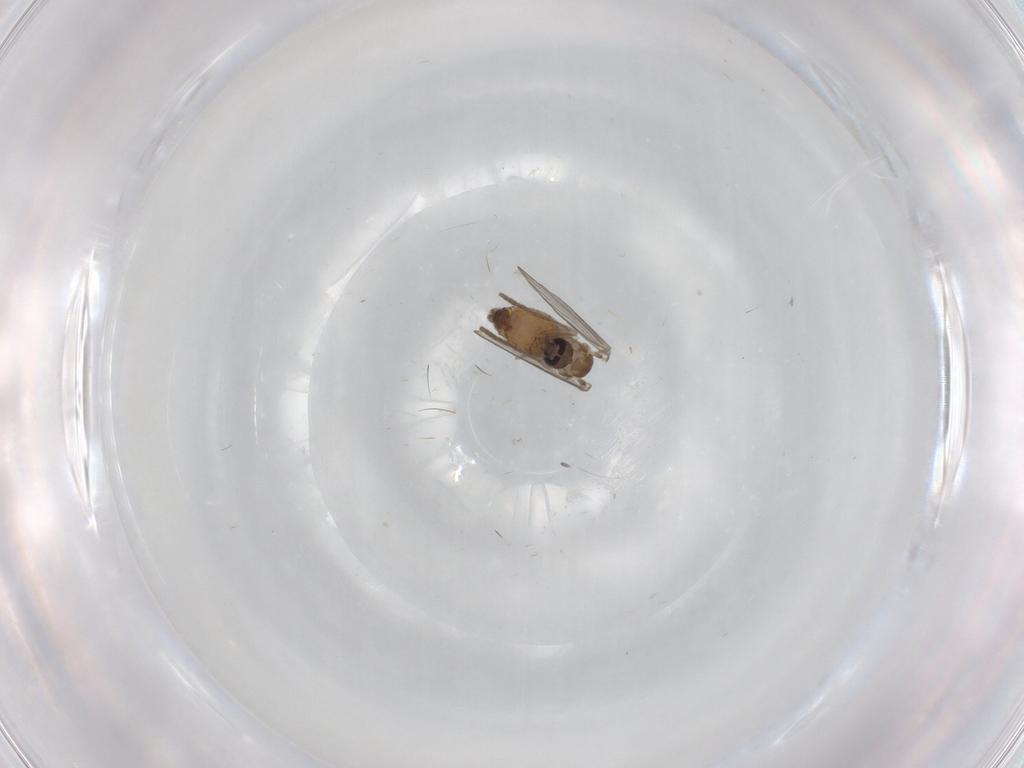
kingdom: Animalia
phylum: Arthropoda
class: Insecta
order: Diptera
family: Psychodidae
